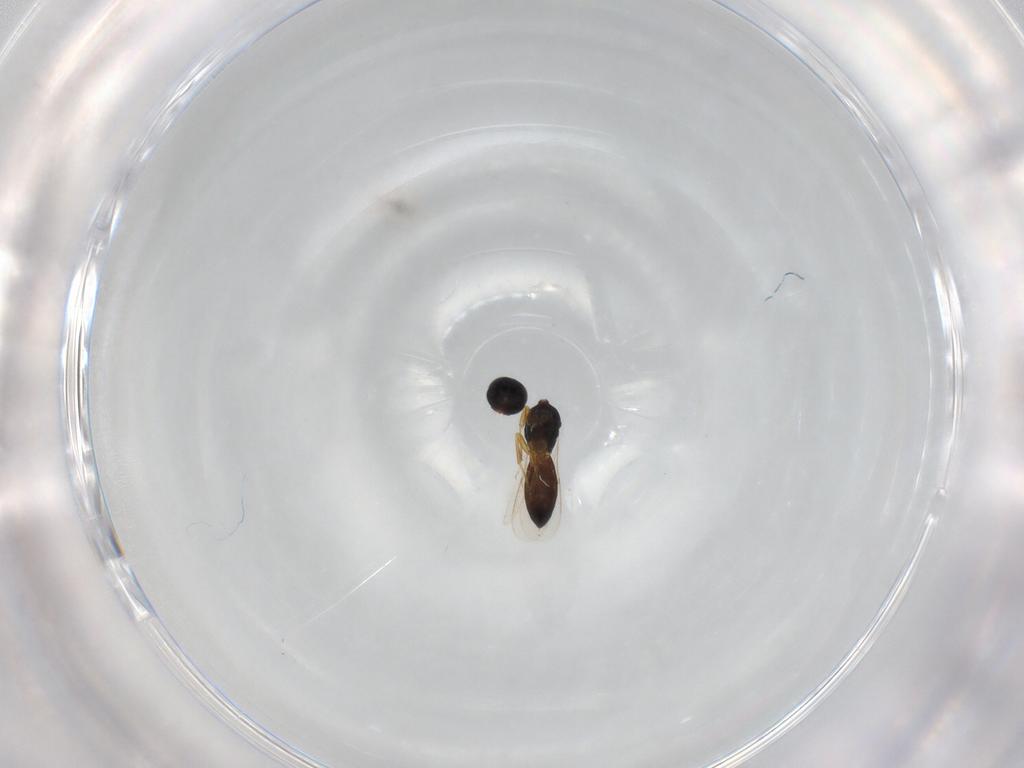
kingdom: Animalia
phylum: Arthropoda
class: Insecta
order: Hymenoptera
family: Scelionidae
